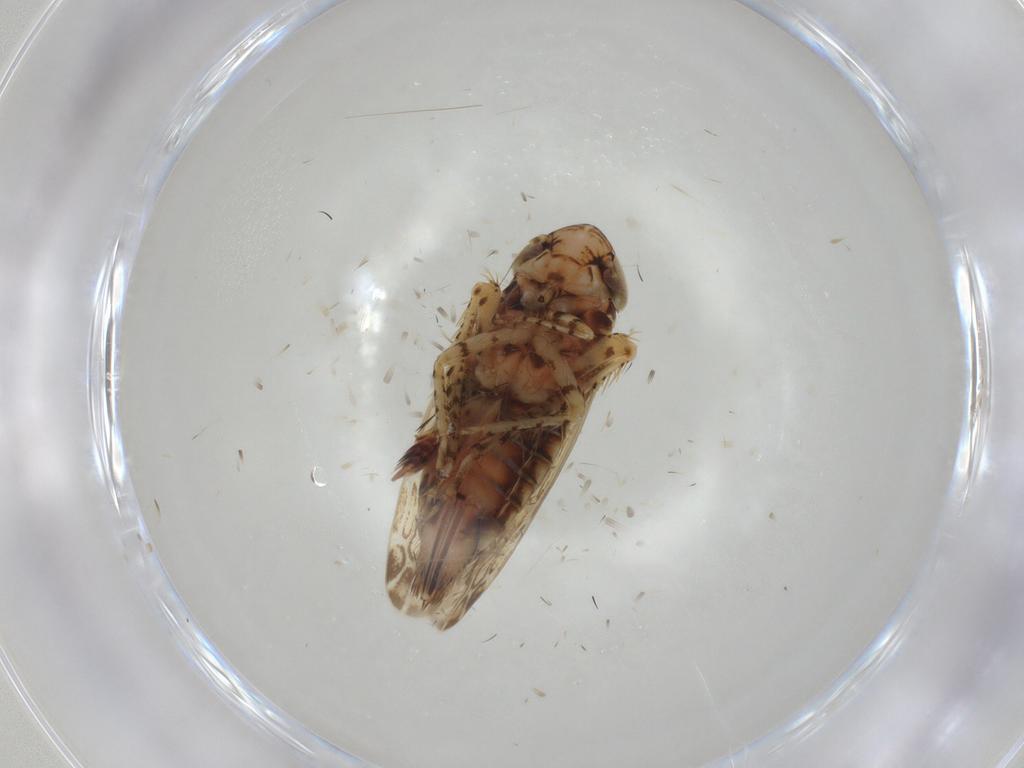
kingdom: Animalia
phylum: Arthropoda
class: Insecta
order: Hemiptera
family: Cicadellidae
